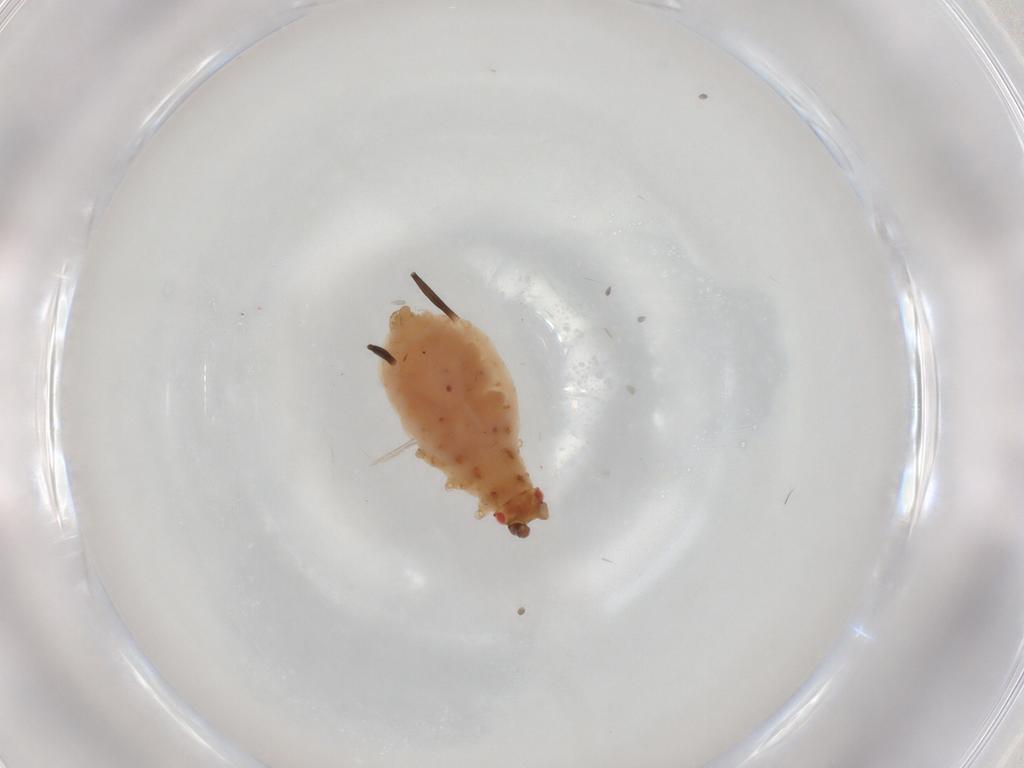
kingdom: Animalia
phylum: Arthropoda
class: Insecta
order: Hemiptera
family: Aphididae
